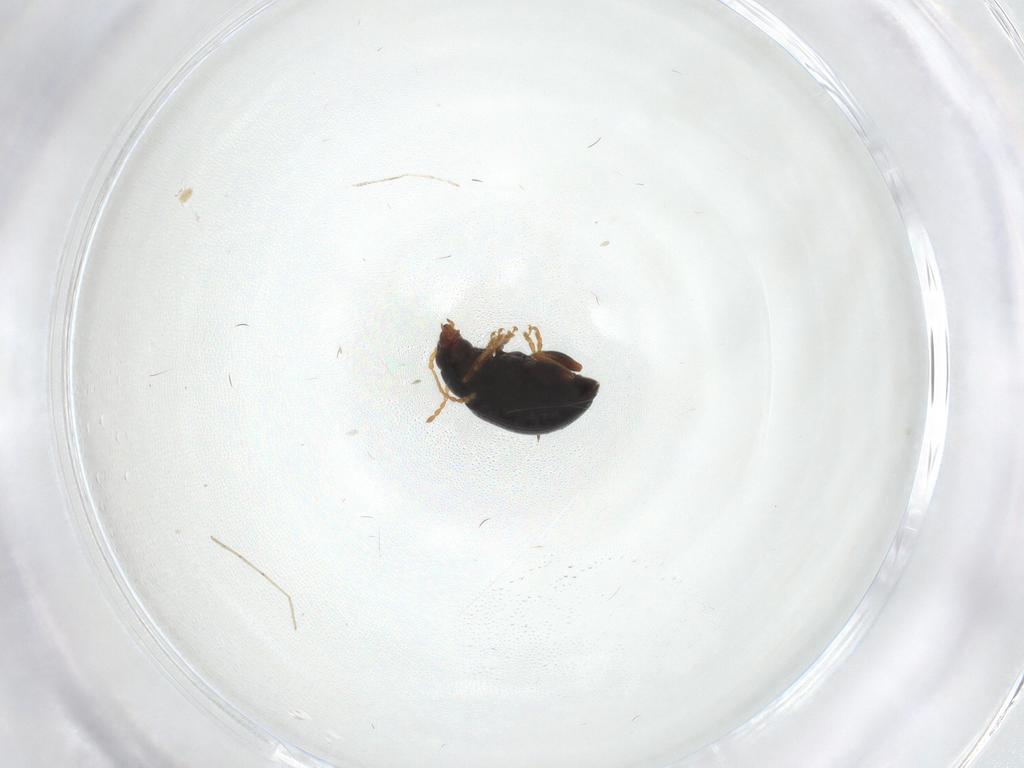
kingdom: Animalia
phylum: Arthropoda
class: Insecta
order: Coleoptera
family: Chrysomelidae
